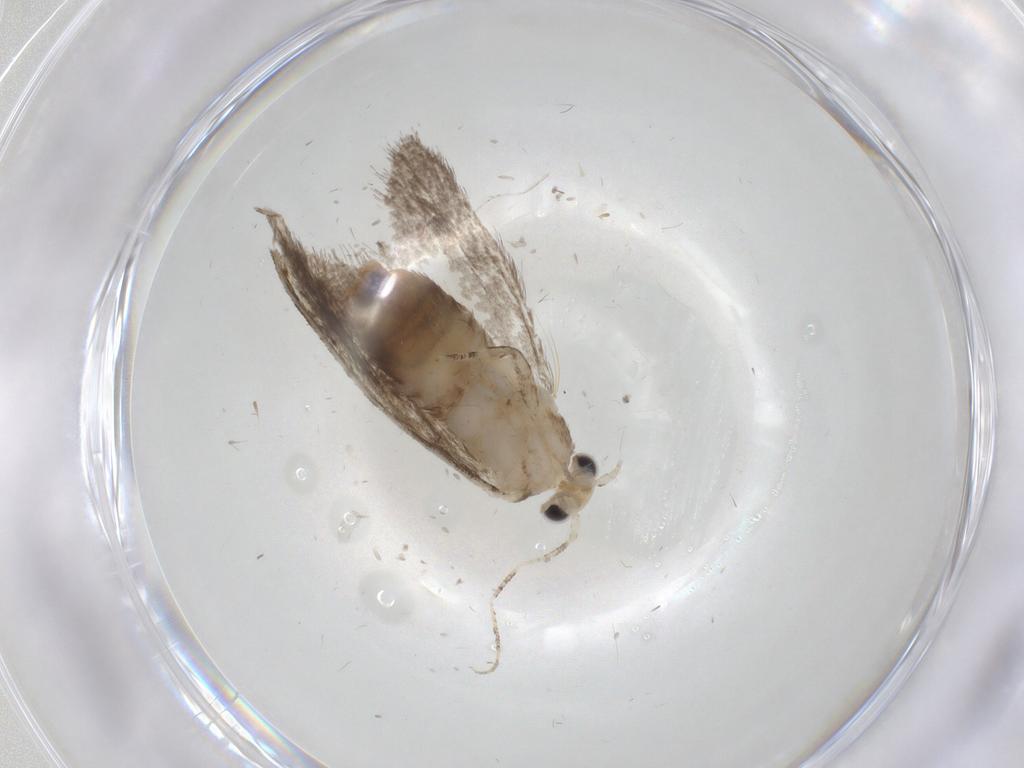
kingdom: Animalia
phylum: Arthropoda
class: Insecta
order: Lepidoptera
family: Tineidae
